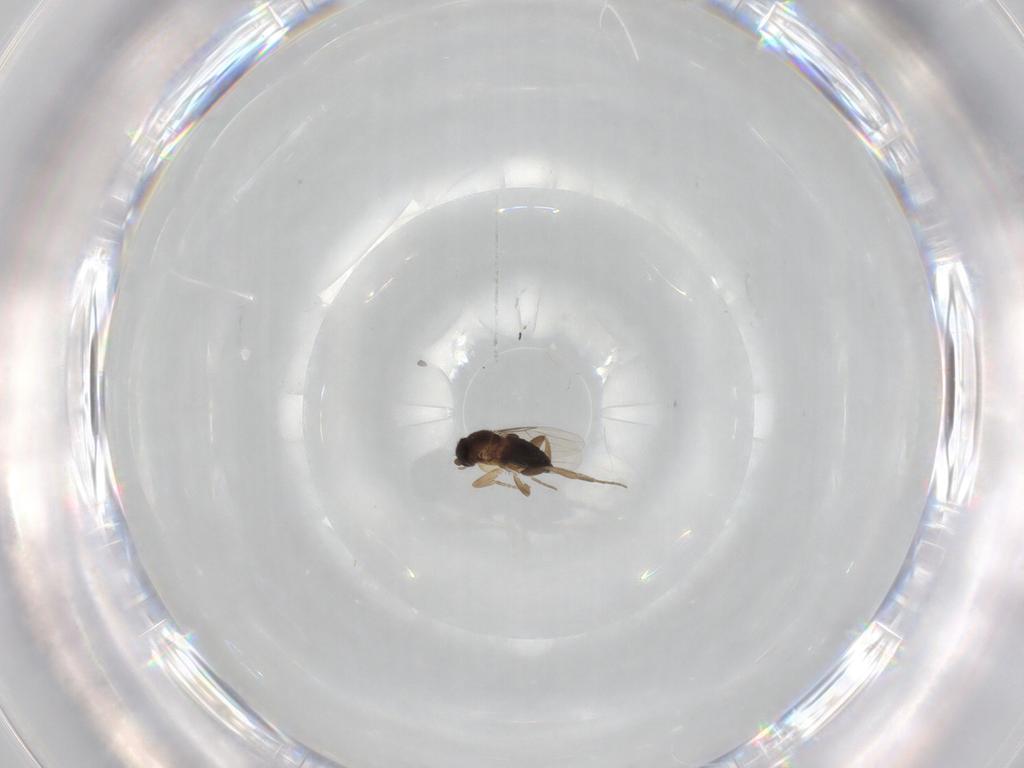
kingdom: Animalia
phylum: Arthropoda
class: Insecta
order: Diptera
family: Phoridae
